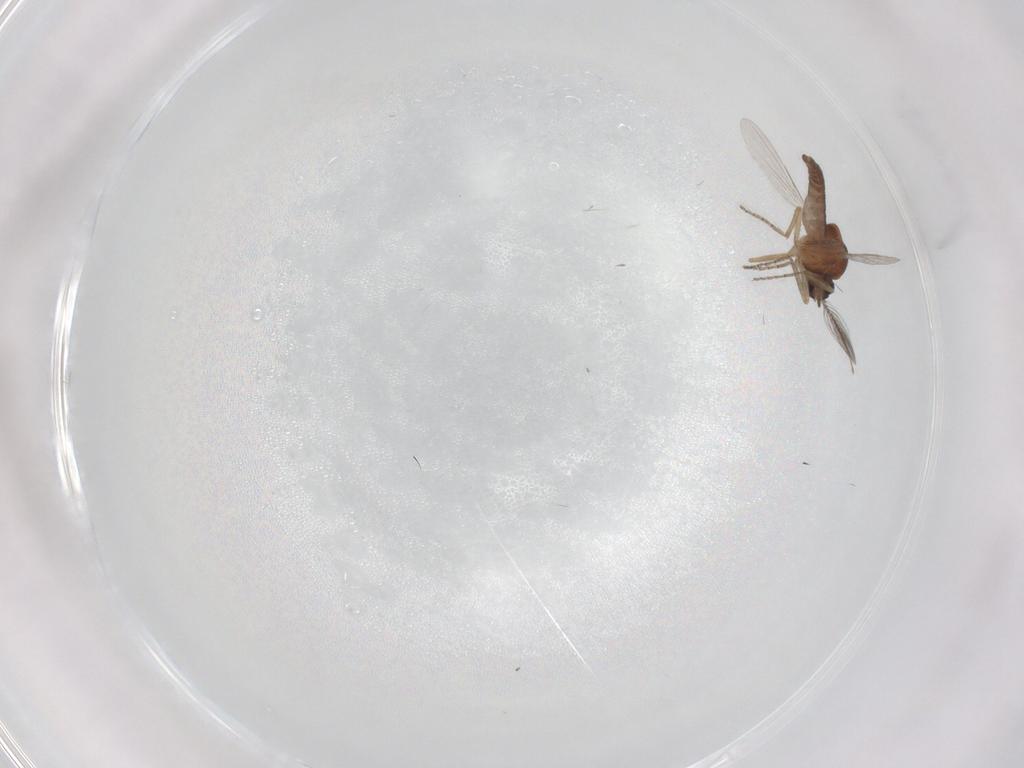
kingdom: Animalia
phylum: Arthropoda
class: Insecta
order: Diptera
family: Ceratopogonidae
